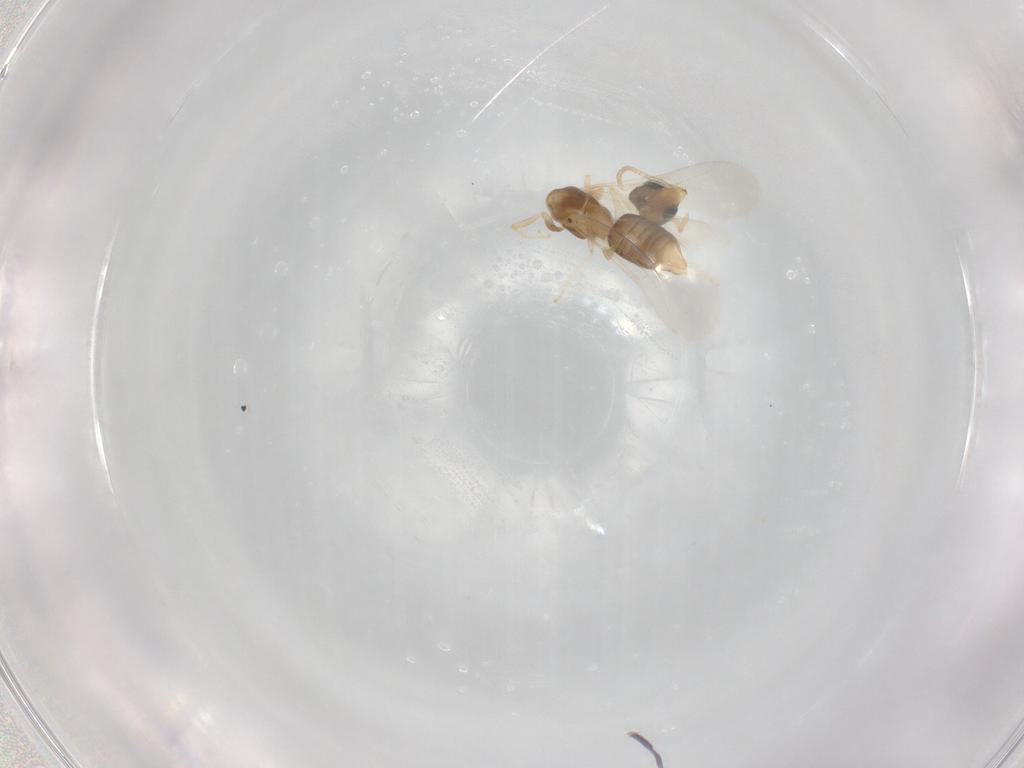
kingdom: Animalia
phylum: Arthropoda
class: Insecta
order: Hymenoptera
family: Formicidae
